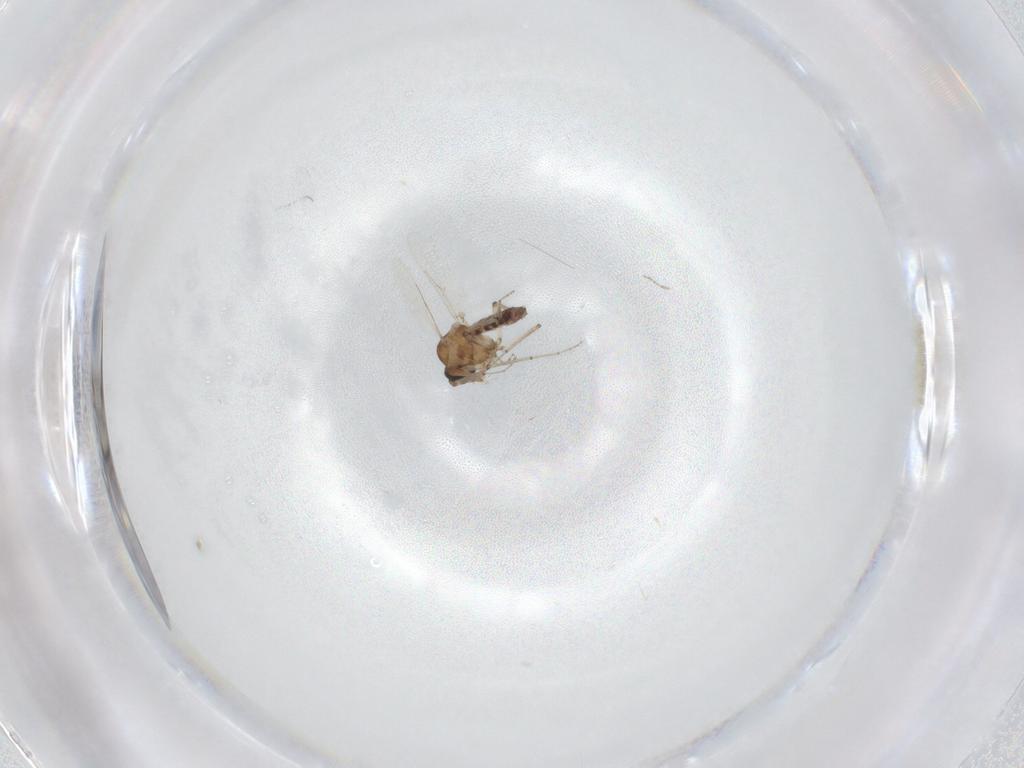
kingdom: Animalia
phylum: Arthropoda
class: Insecta
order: Diptera
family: Ceratopogonidae
